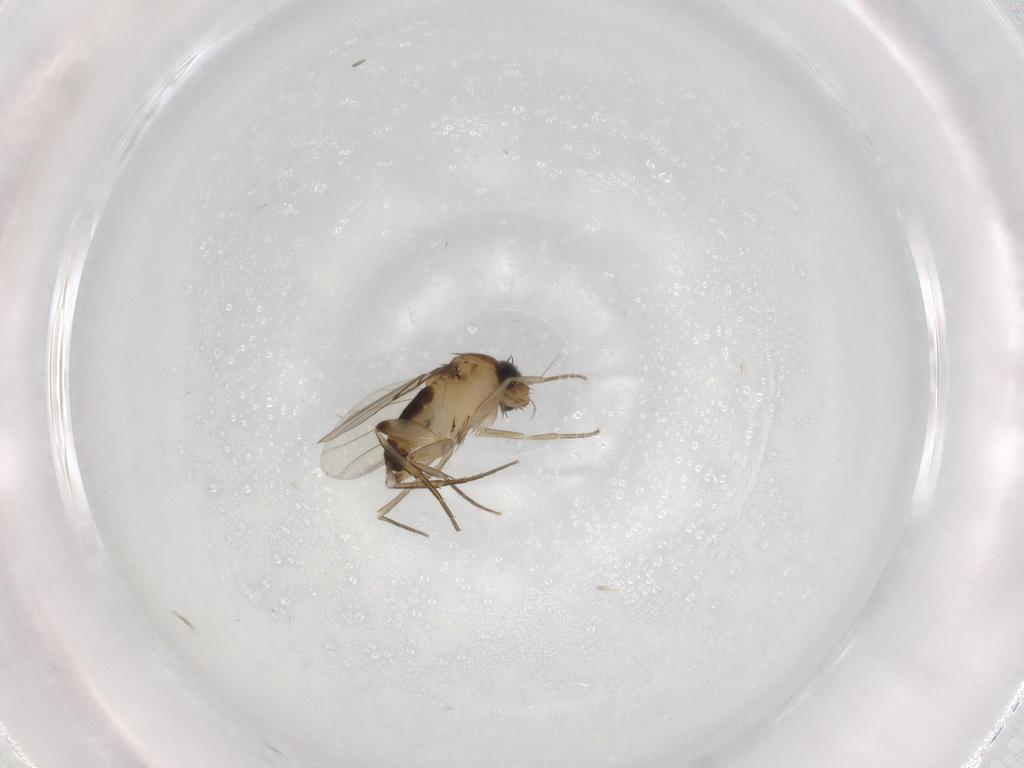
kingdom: Animalia
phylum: Arthropoda
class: Insecta
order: Diptera
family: Phoridae
